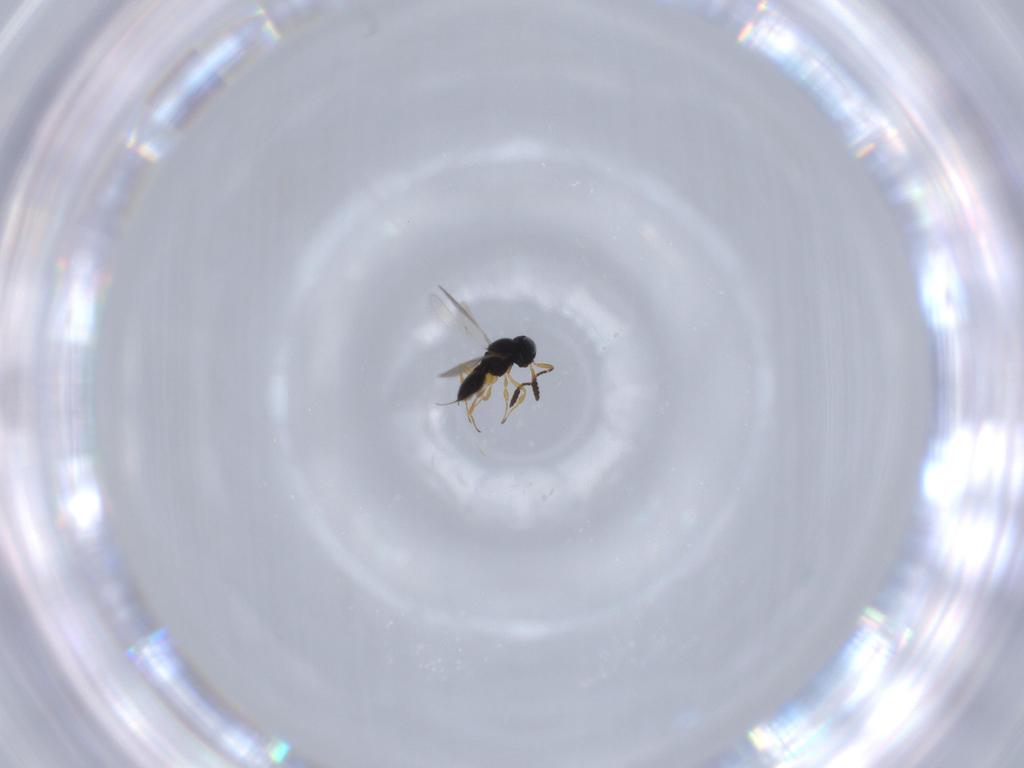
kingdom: Animalia
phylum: Arthropoda
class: Insecta
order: Hymenoptera
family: Scelionidae
